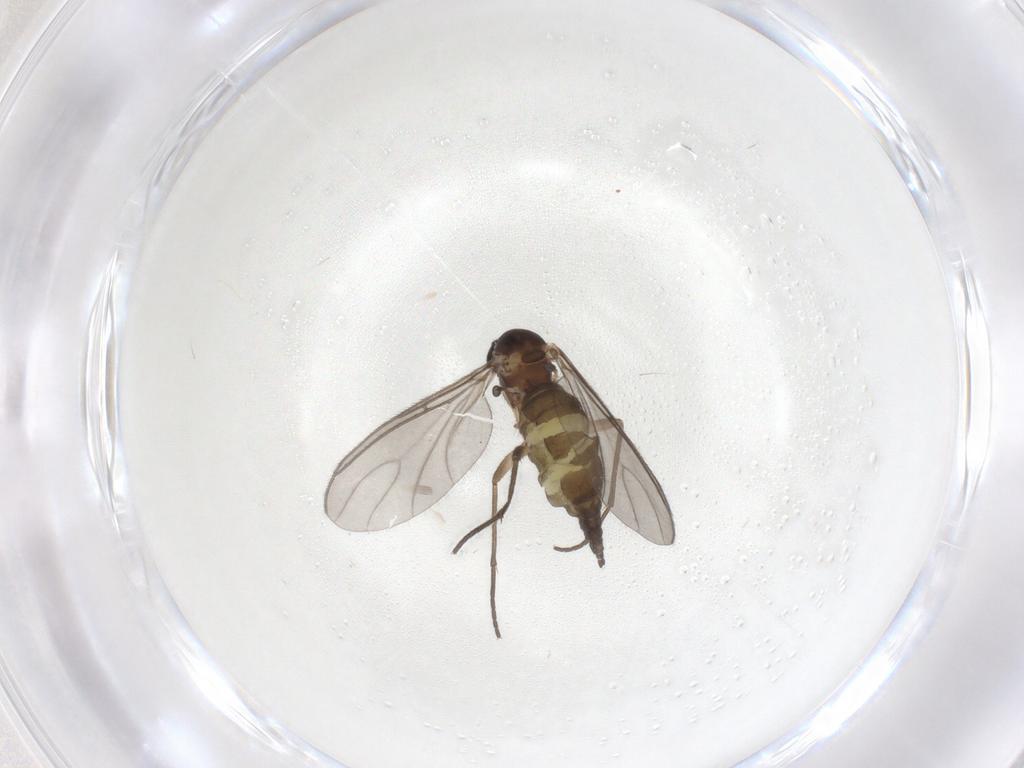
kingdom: Animalia
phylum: Arthropoda
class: Insecta
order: Diptera
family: Sciaridae
